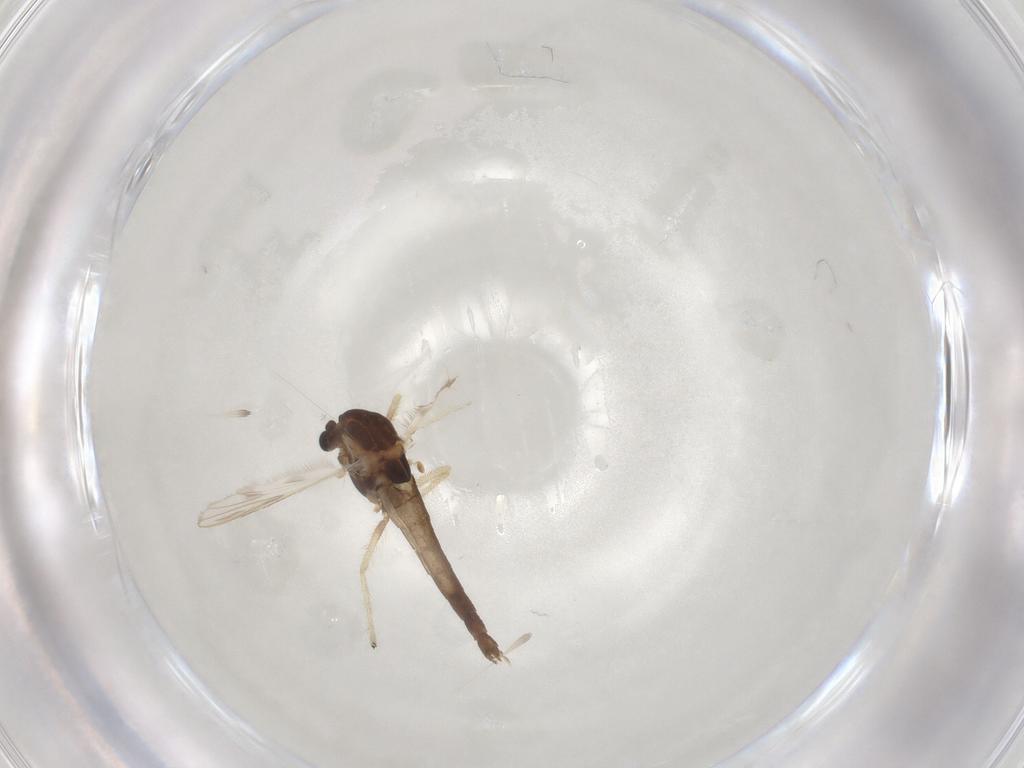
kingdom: Animalia
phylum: Arthropoda
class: Insecta
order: Diptera
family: Chironomidae
